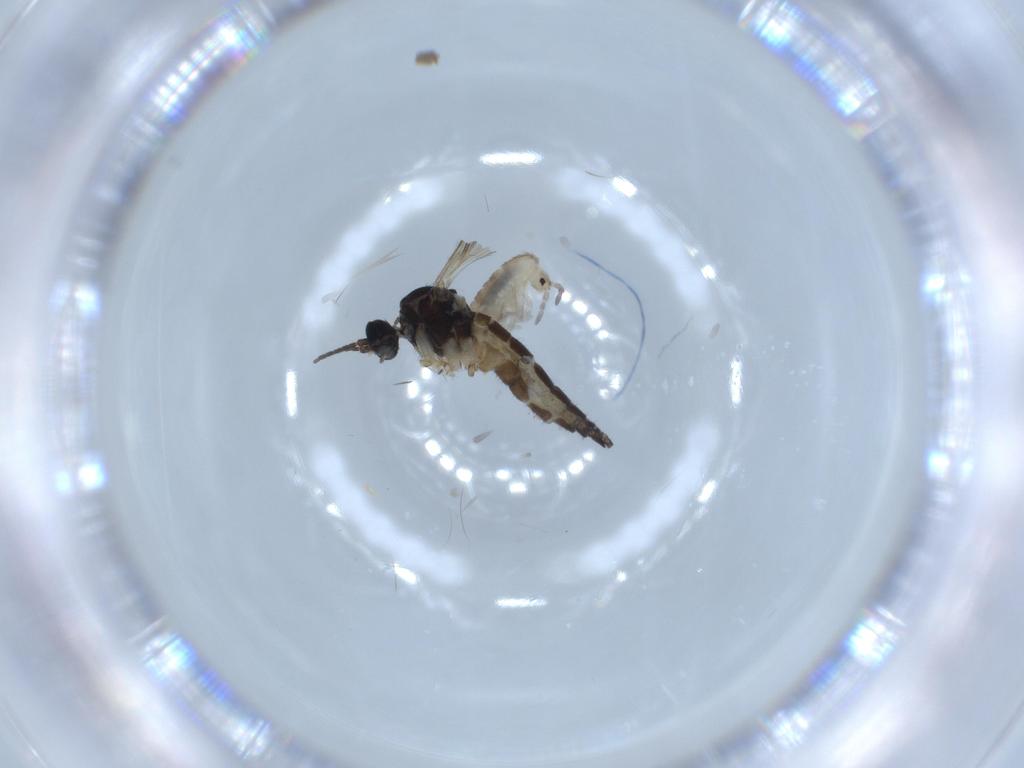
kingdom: Animalia
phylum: Arthropoda
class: Insecta
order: Diptera
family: Sciaridae
